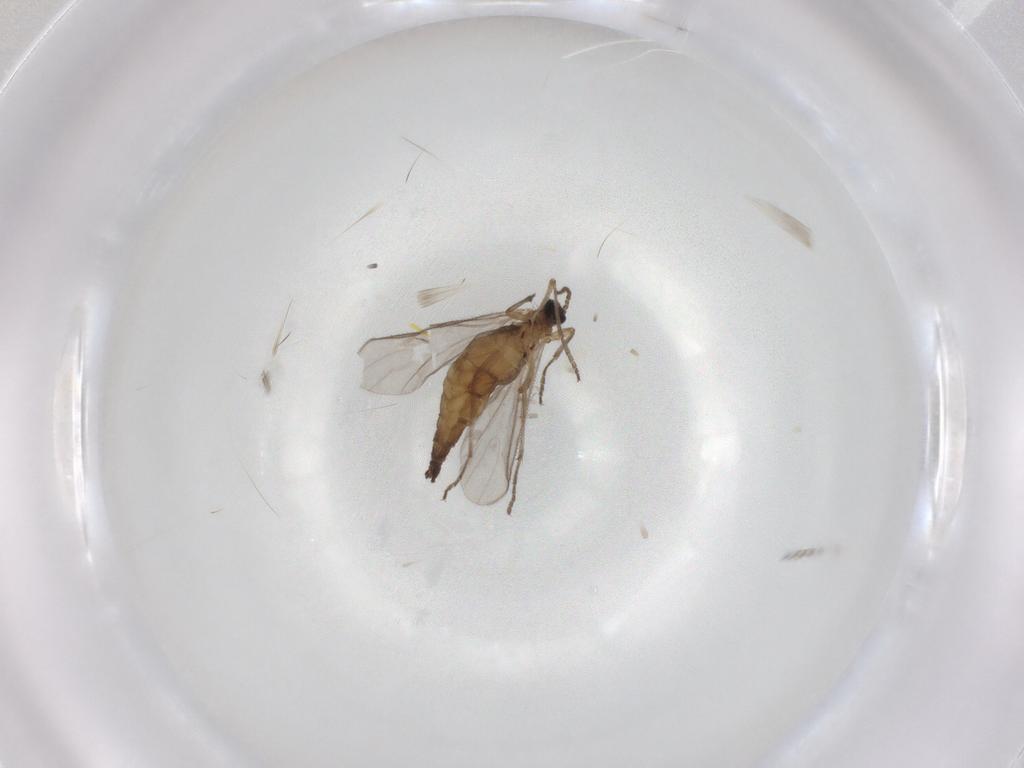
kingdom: Animalia
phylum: Arthropoda
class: Insecta
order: Diptera
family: Sciaridae
